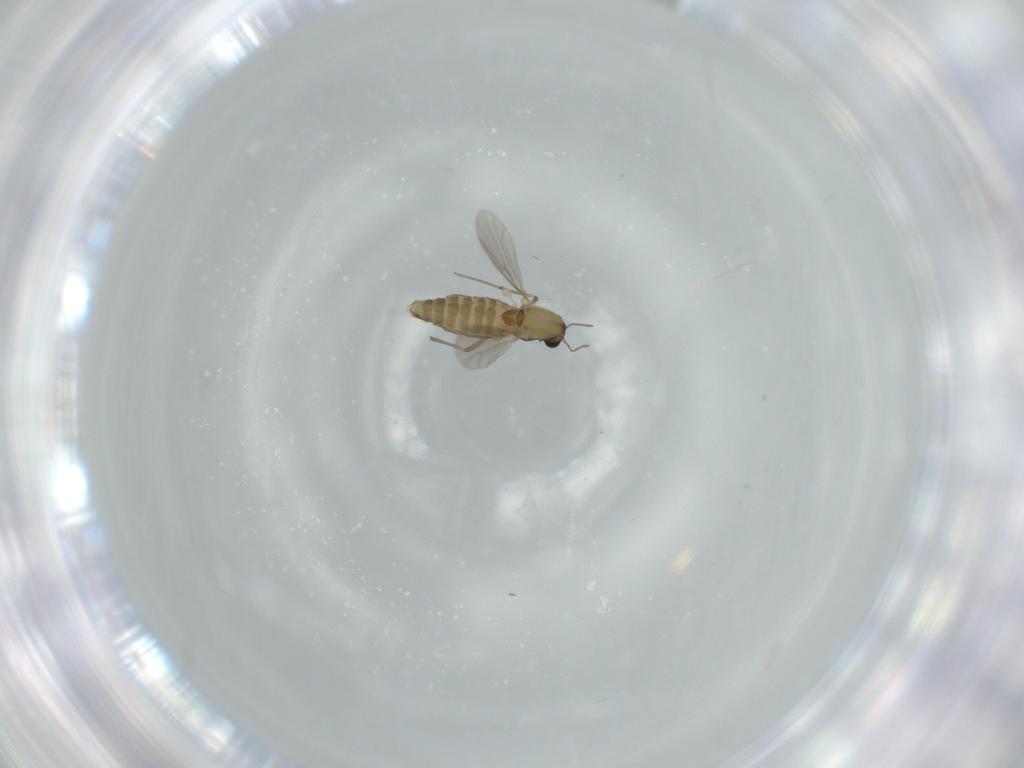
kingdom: Animalia
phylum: Arthropoda
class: Insecta
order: Diptera
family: Chironomidae
